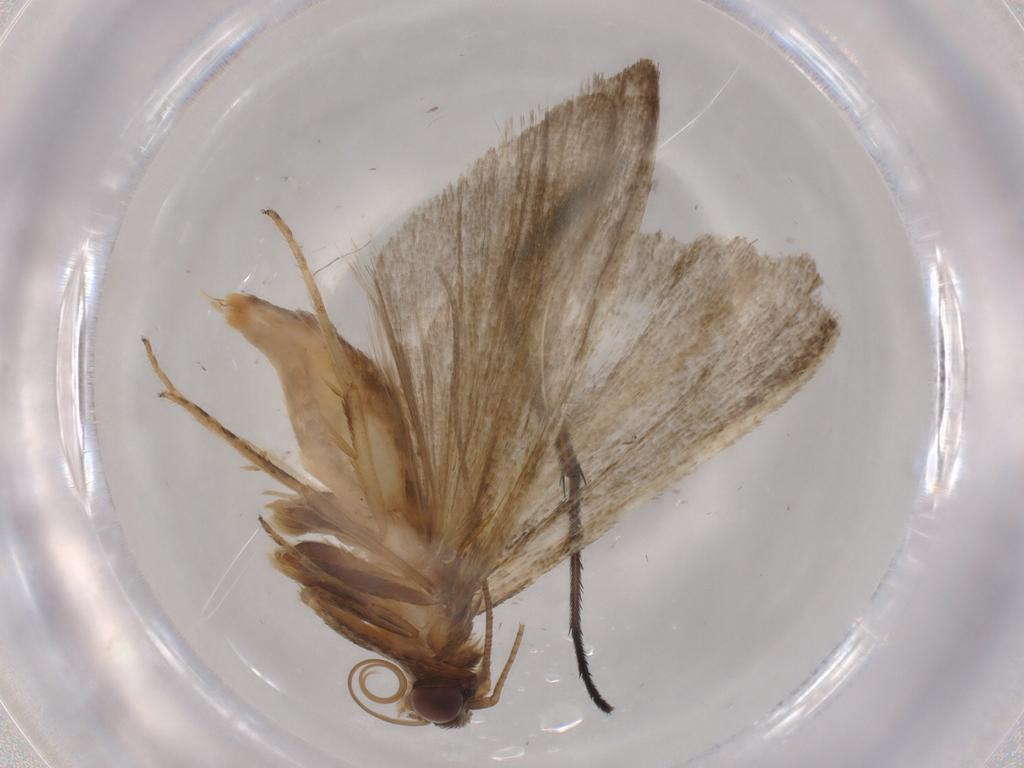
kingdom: Animalia
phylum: Arthropoda
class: Insecta
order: Lepidoptera
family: Noctuidae
